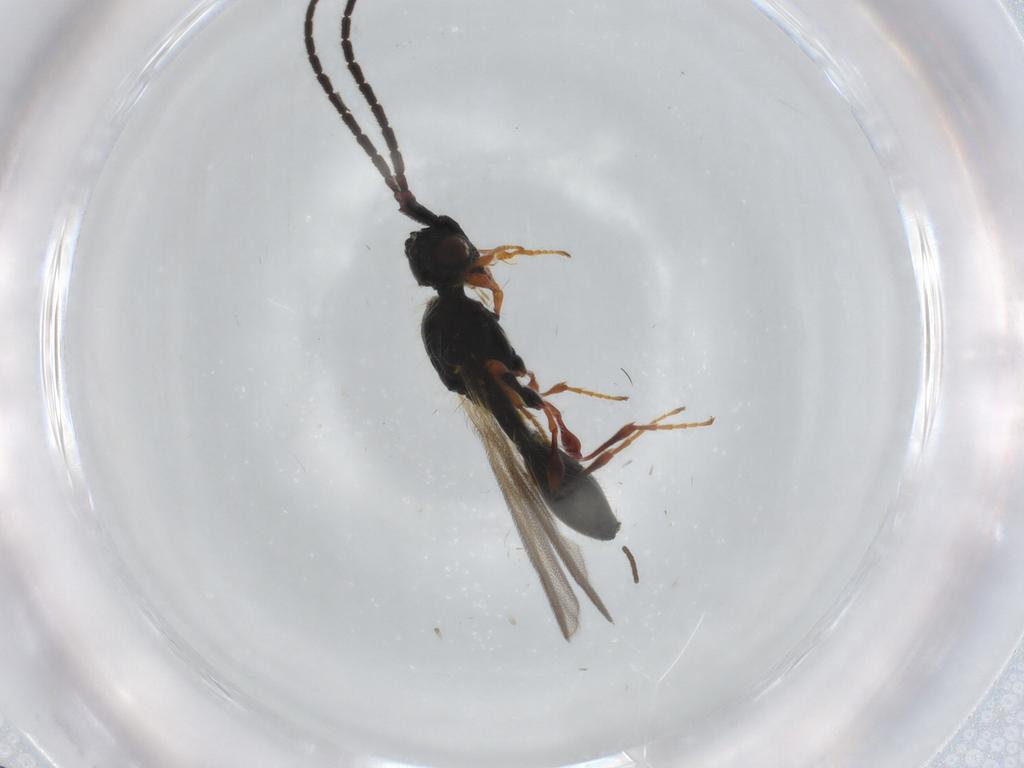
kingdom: Animalia
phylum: Arthropoda
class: Insecta
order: Hymenoptera
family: Diapriidae
